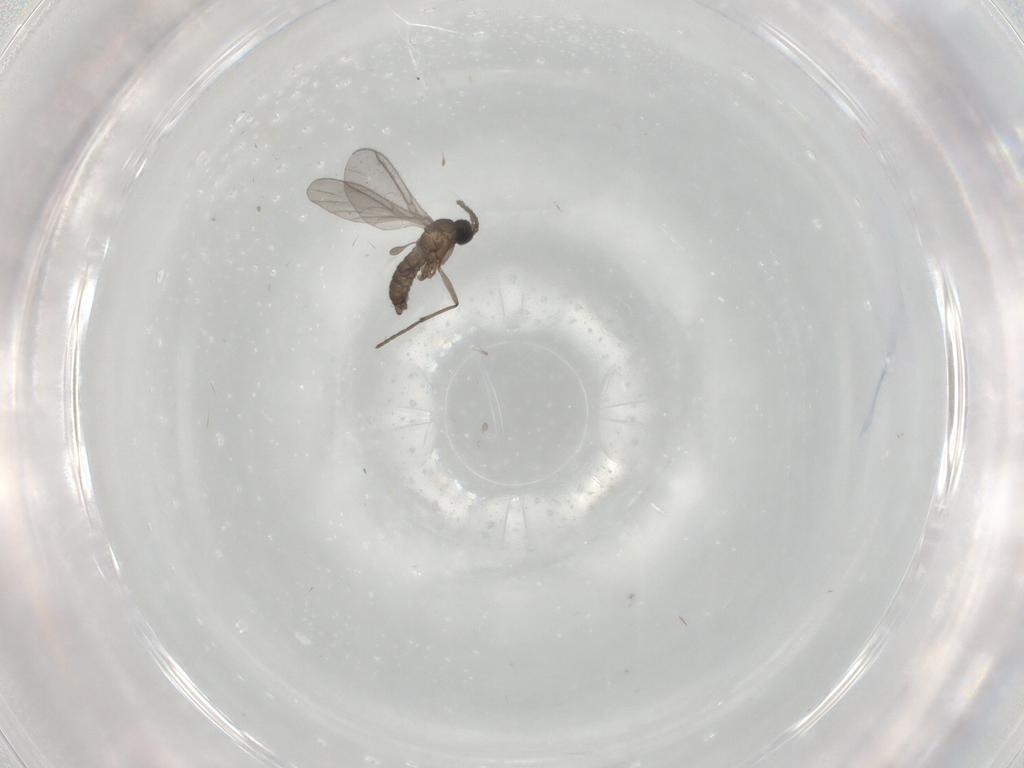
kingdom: Animalia
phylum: Arthropoda
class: Insecta
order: Diptera
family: Sciaridae
